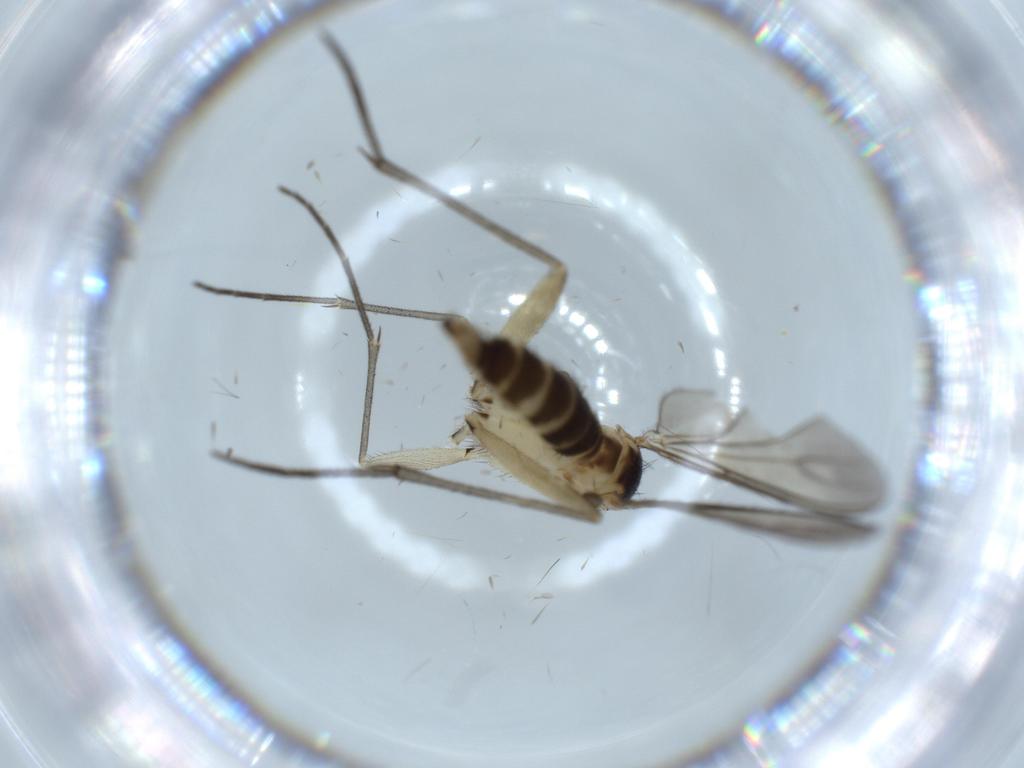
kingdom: Animalia
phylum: Arthropoda
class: Insecta
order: Diptera
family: Sciaridae
